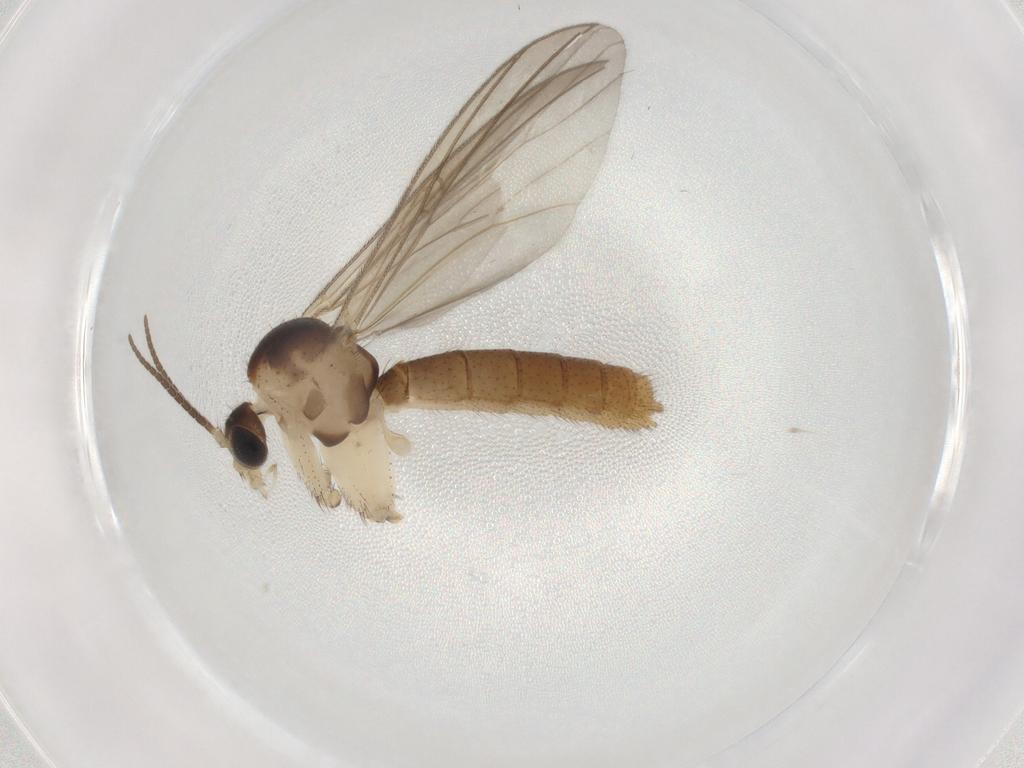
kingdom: Animalia
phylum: Arthropoda
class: Insecta
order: Diptera
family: Mycetophilidae
